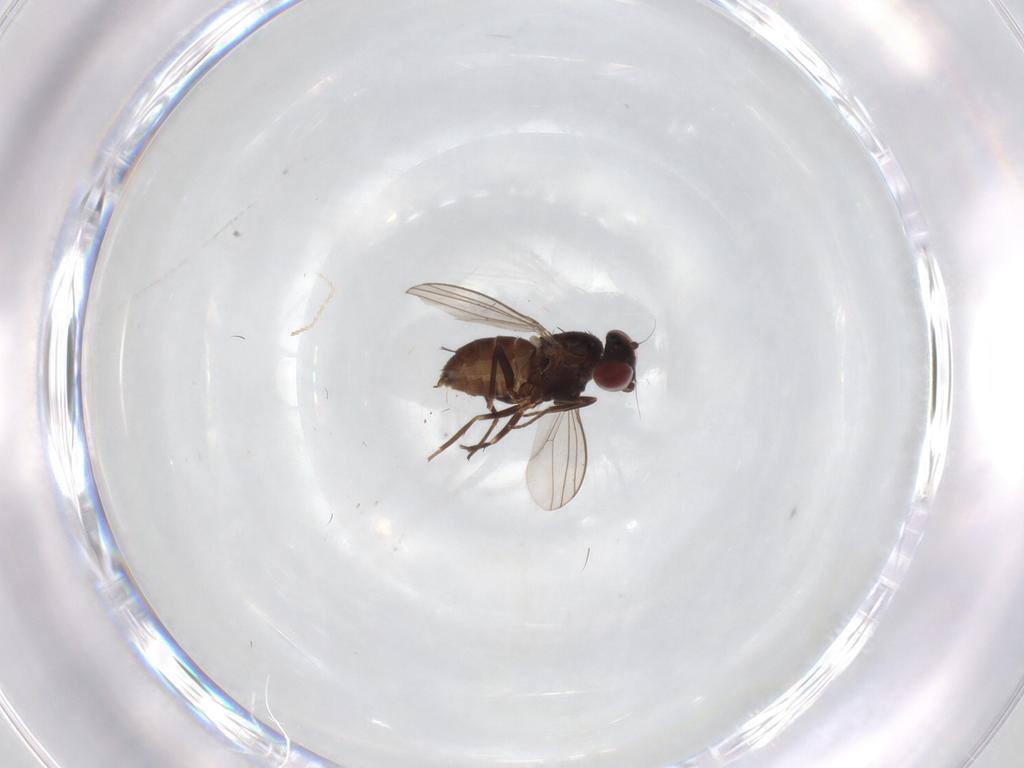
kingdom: Animalia
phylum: Arthropoda
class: Insecta
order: Diptera
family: Dolichopodidae
